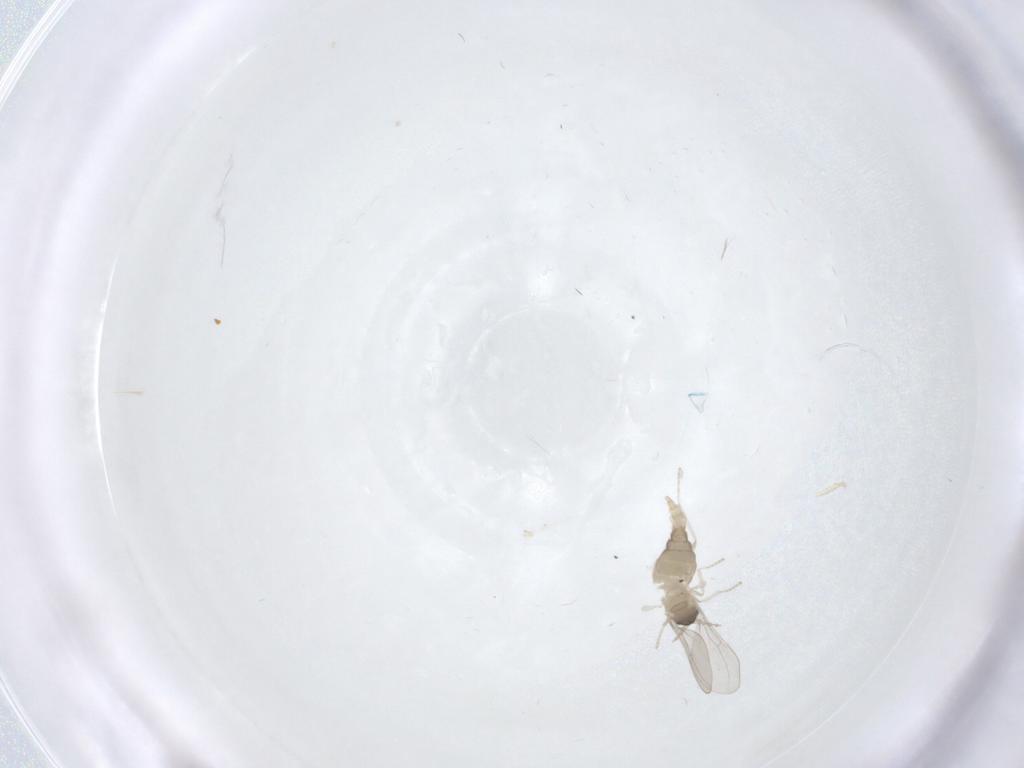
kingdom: Animalia
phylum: Arthropoda
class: Insecta
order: Diptera
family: Cecidomyiidae
